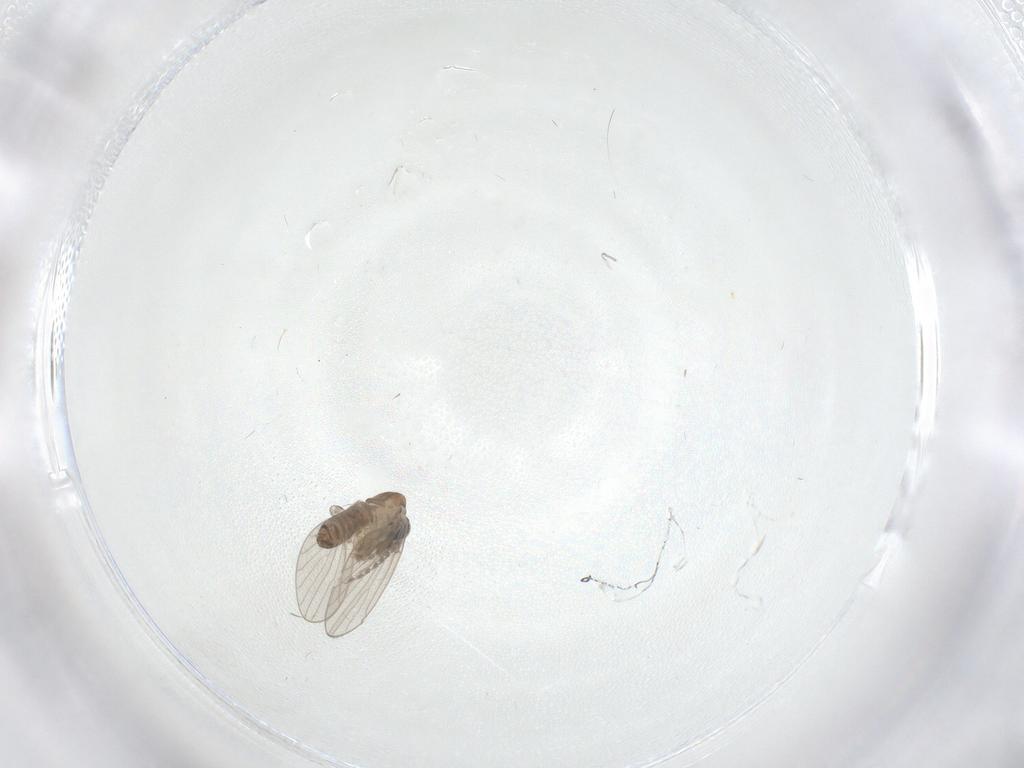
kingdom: Animalia
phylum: Arthropoda
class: Insecta
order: Diptera
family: Psychodidae
